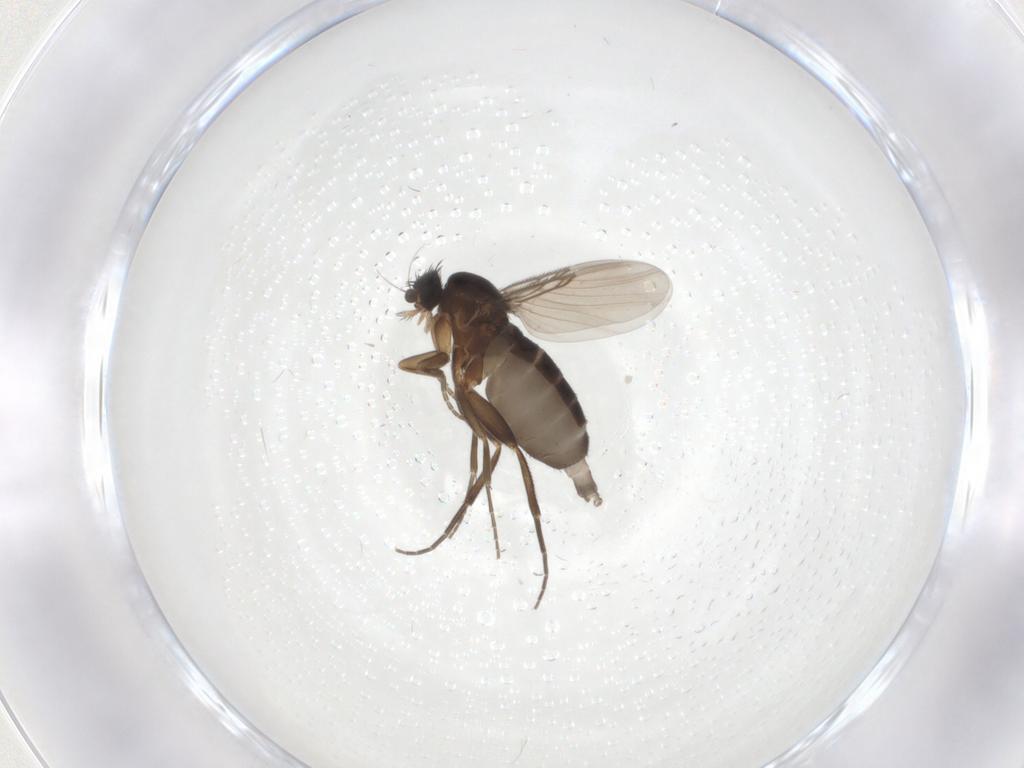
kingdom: Animalia
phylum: Arthropoda
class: Insecta
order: Diptera
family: Phoridae
